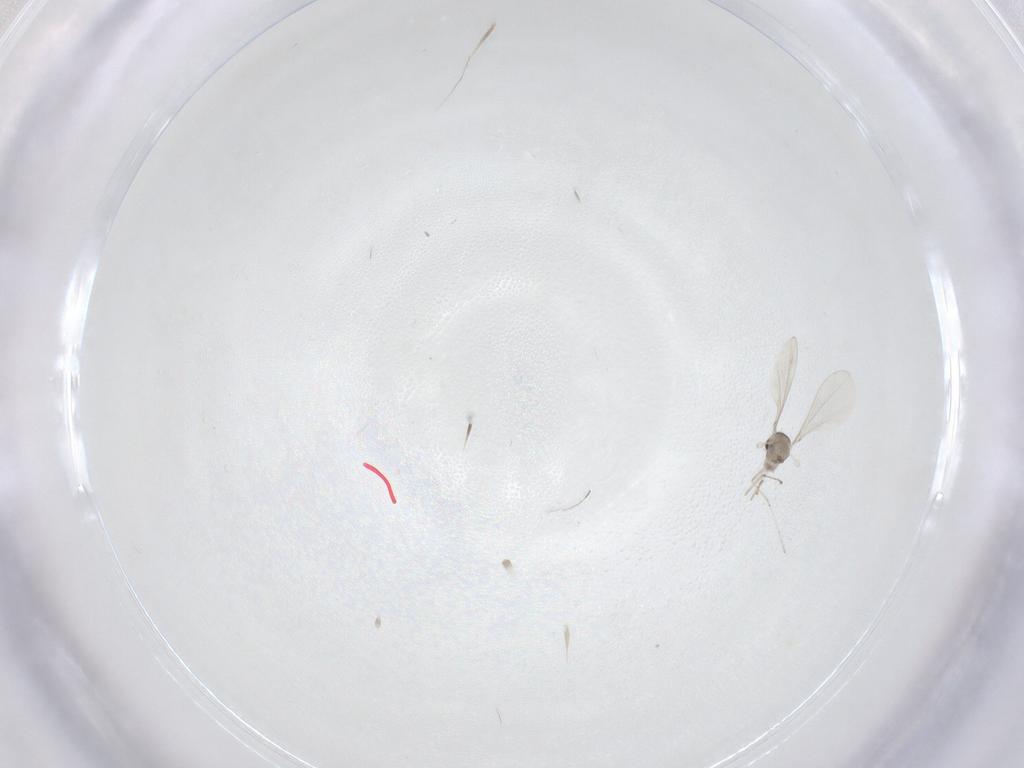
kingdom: Animalia
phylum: Arthropoda
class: Insecta
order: Diptera
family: Cecidomyiidae
